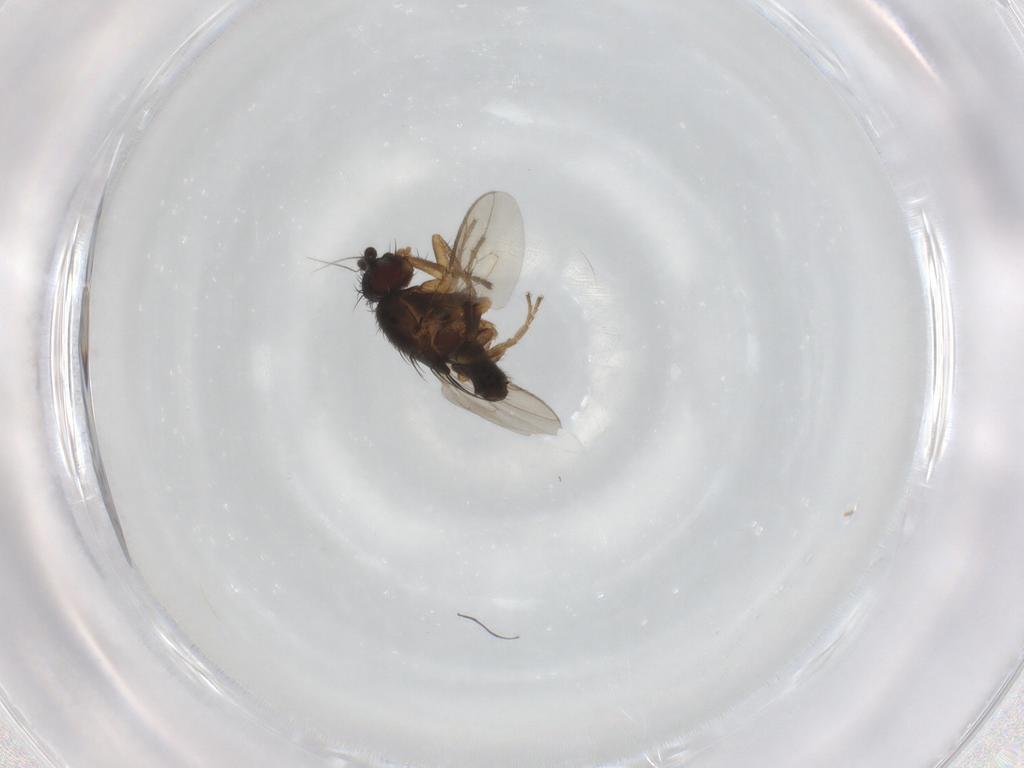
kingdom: Animalia
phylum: Arthropoda
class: Insecta
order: Diptera
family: Sphaeroceridae
